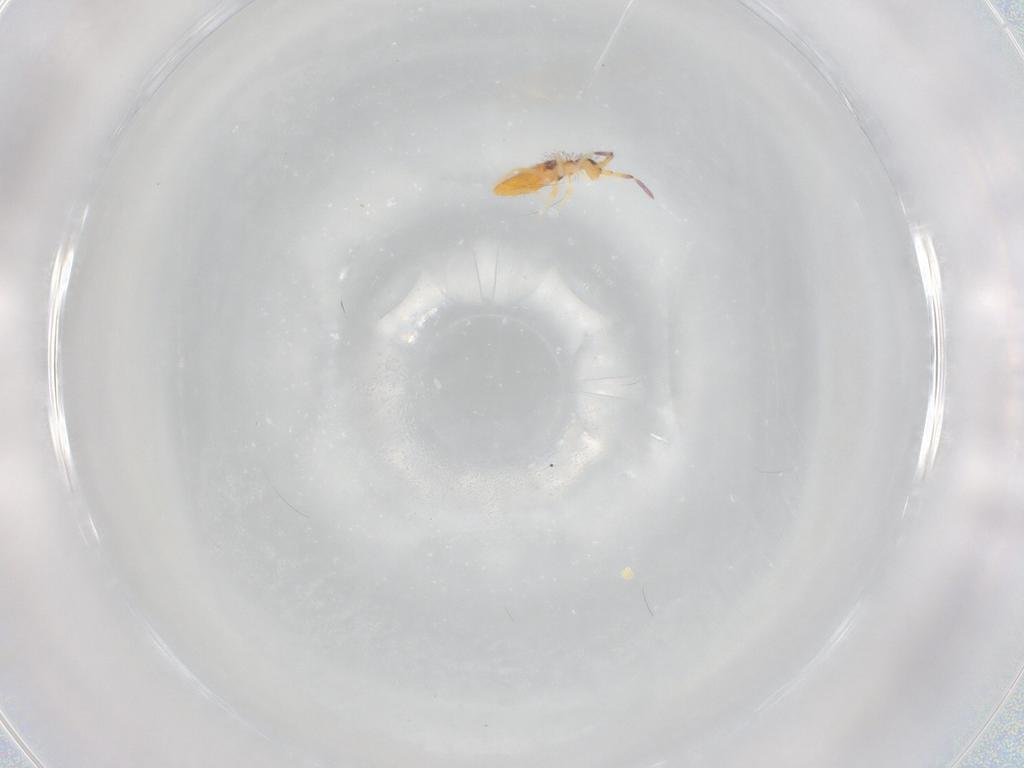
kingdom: Animalia
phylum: Arthropoda
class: Collembola
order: Entomobryomorpha
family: Entomobryidae
